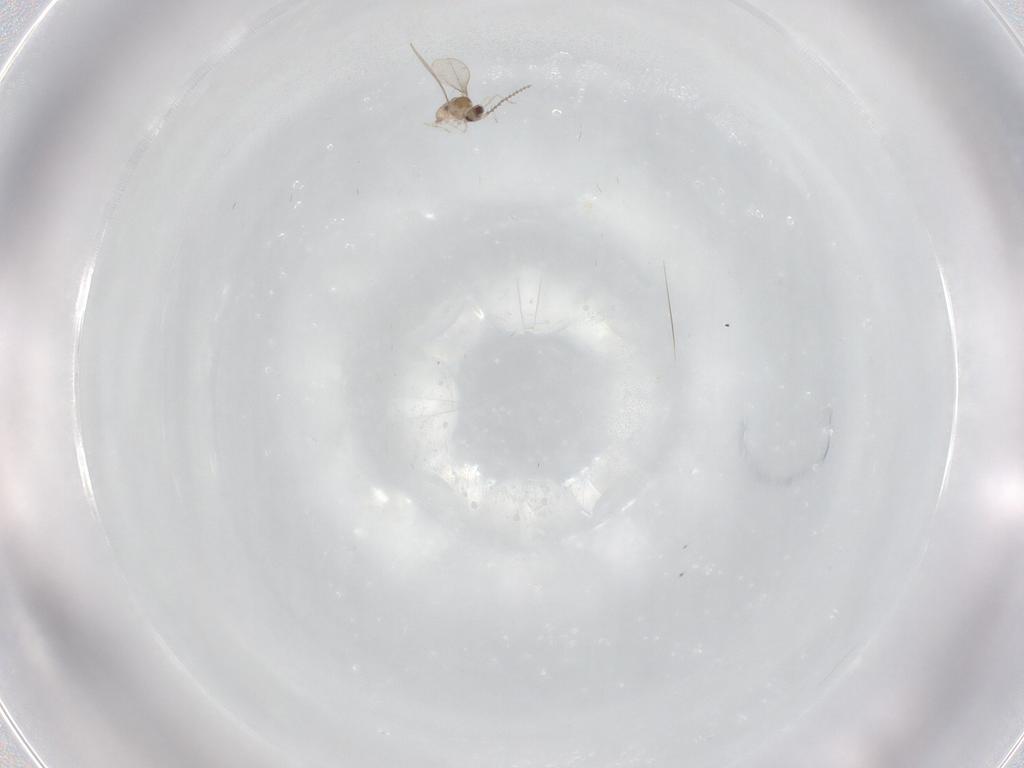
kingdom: Animalia
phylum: Arthropoda
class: Insecta
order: Diptera
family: Cecidomyiidae
